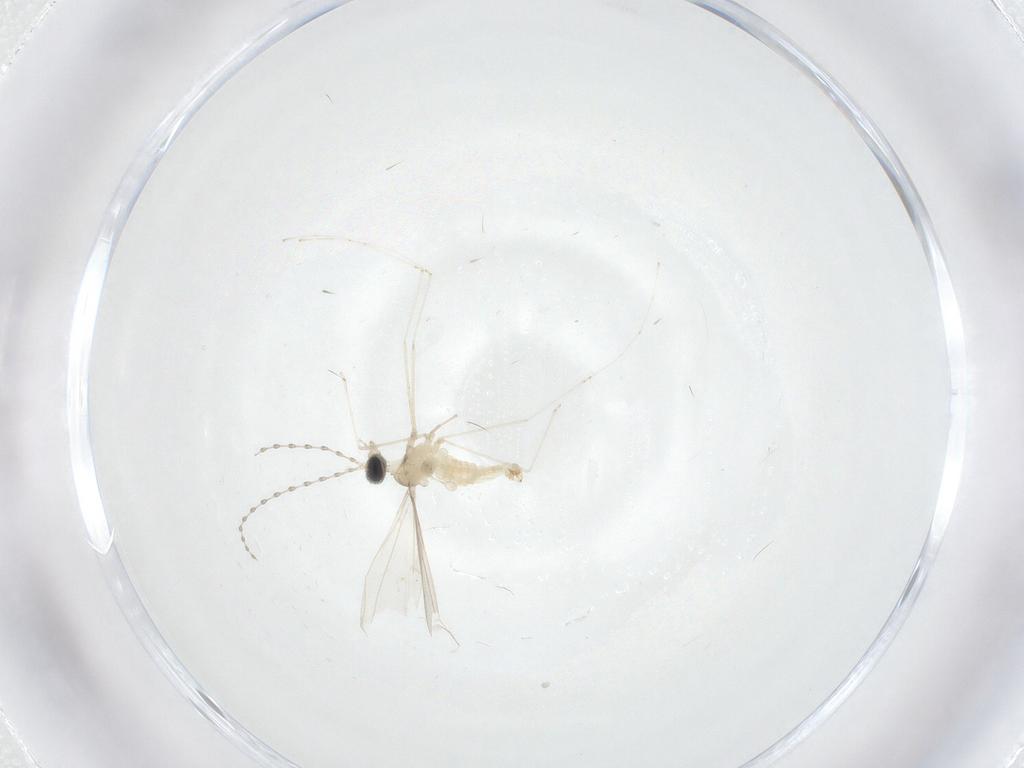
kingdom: Animalia
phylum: Arthropoda
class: Insecta
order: Diptera
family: Cecidomyiidae
